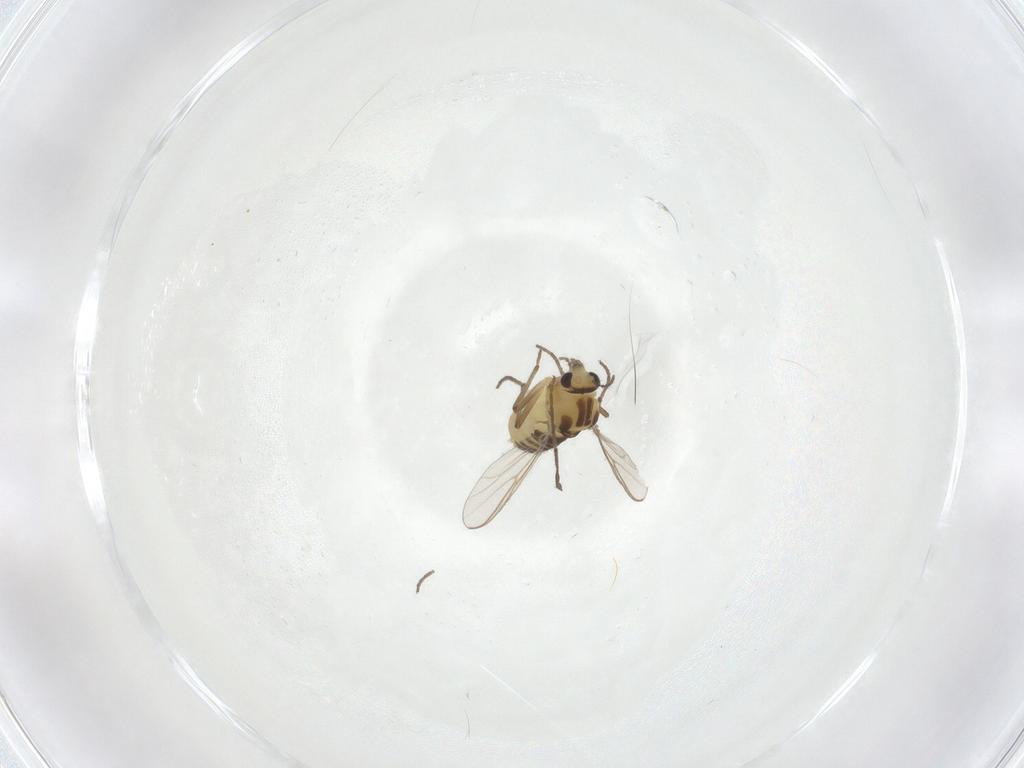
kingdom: Animalia
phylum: Arthropoda
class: Insecta
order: Diptera
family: Chironomidae
